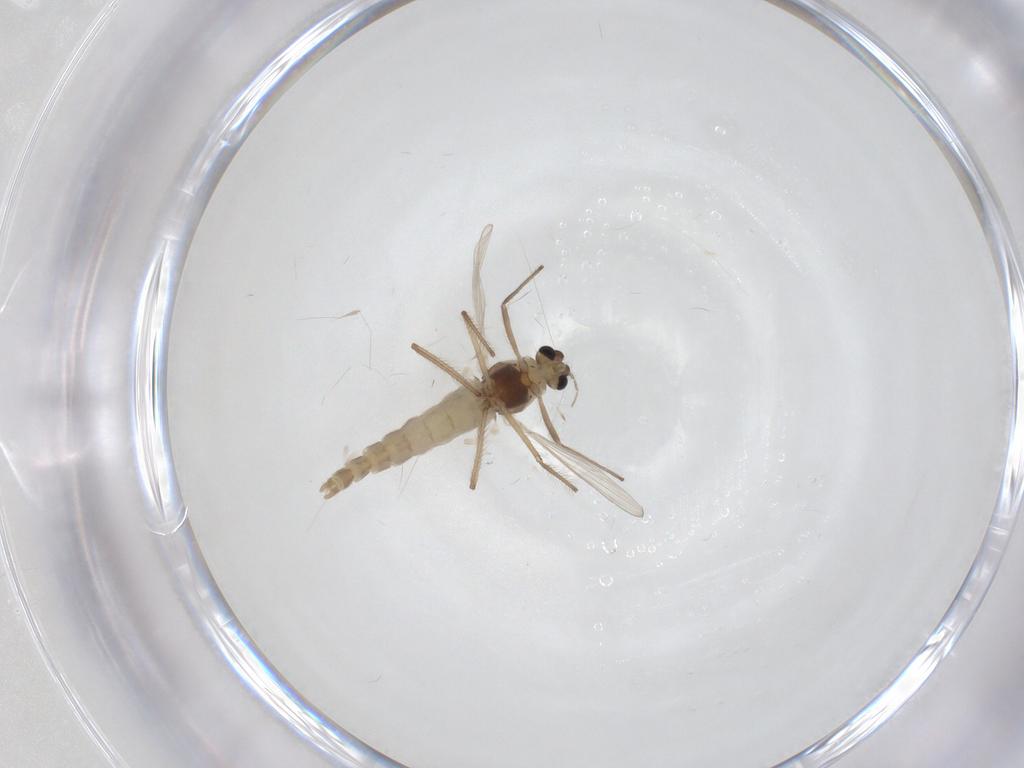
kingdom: Animalia
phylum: Arthropoda
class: Insecta
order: Diptera
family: Chironomidae
